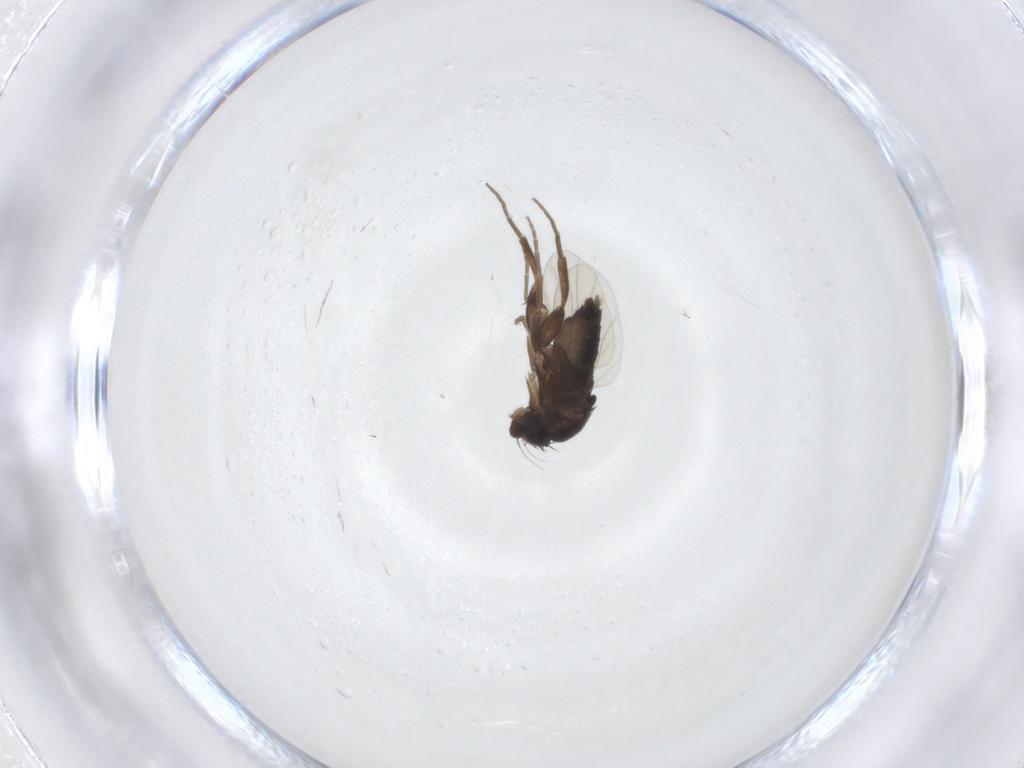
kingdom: Animalia
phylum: Arthropoda
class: Insecta
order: Diptera
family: Phoridae
